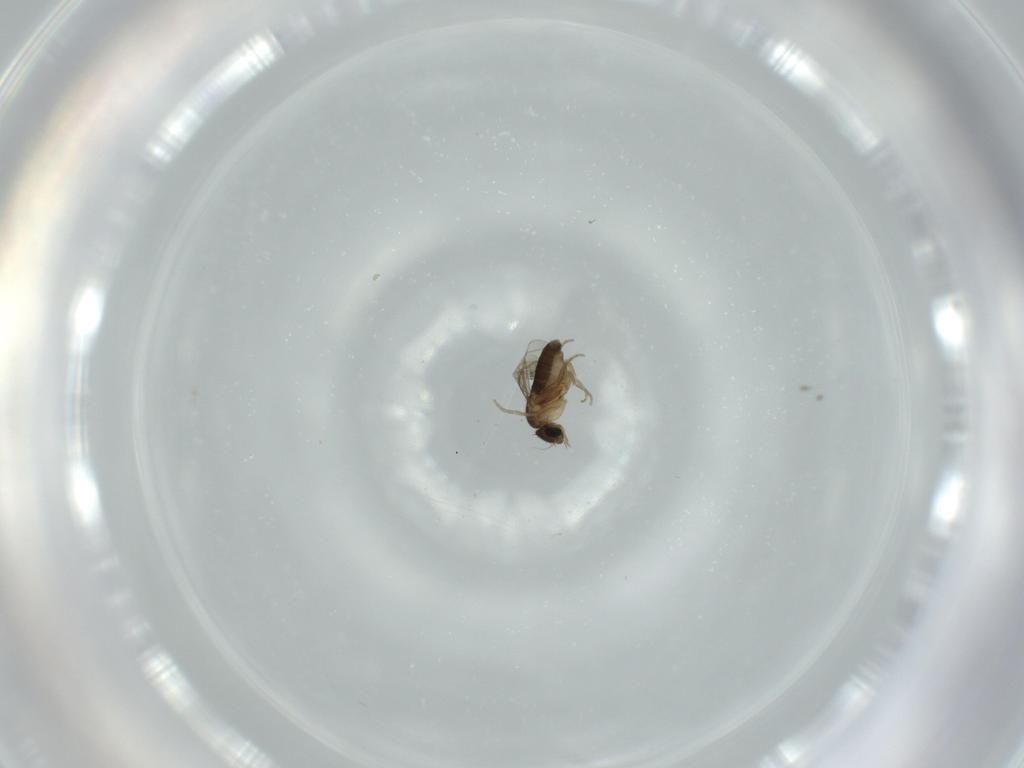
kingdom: Animalia
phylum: Arthropoda
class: Insecta
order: Diptera
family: Phoridae
